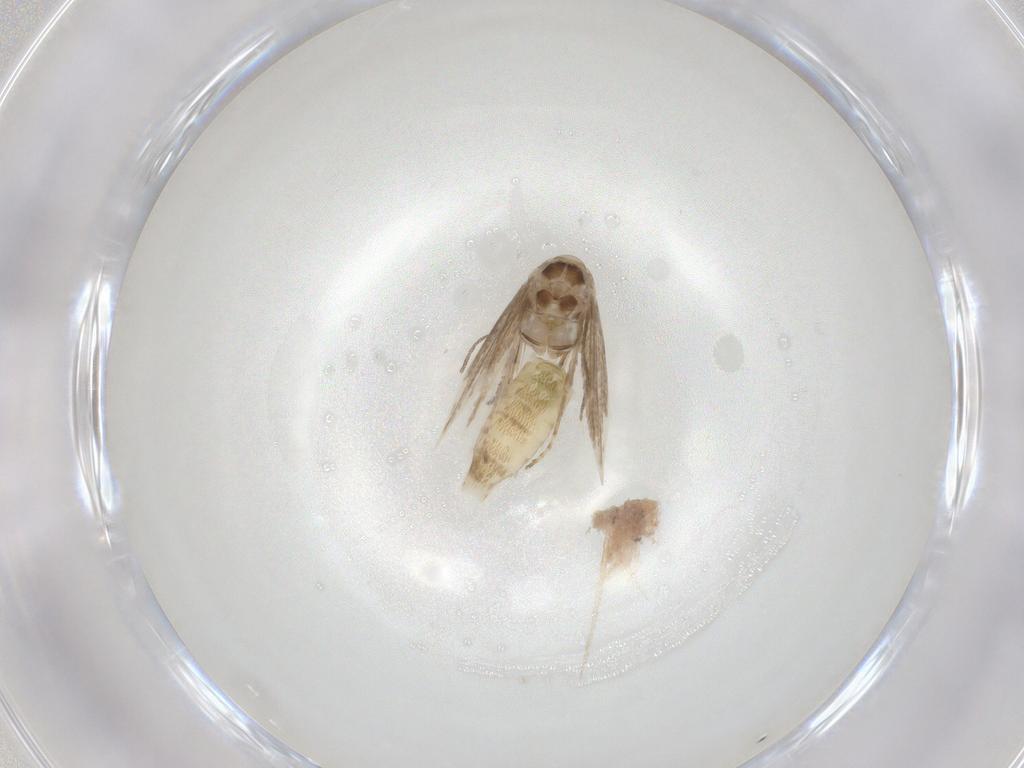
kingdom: Animalia
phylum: Arthropoda
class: Insecta
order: Lepidoptera
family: Depressariidae
